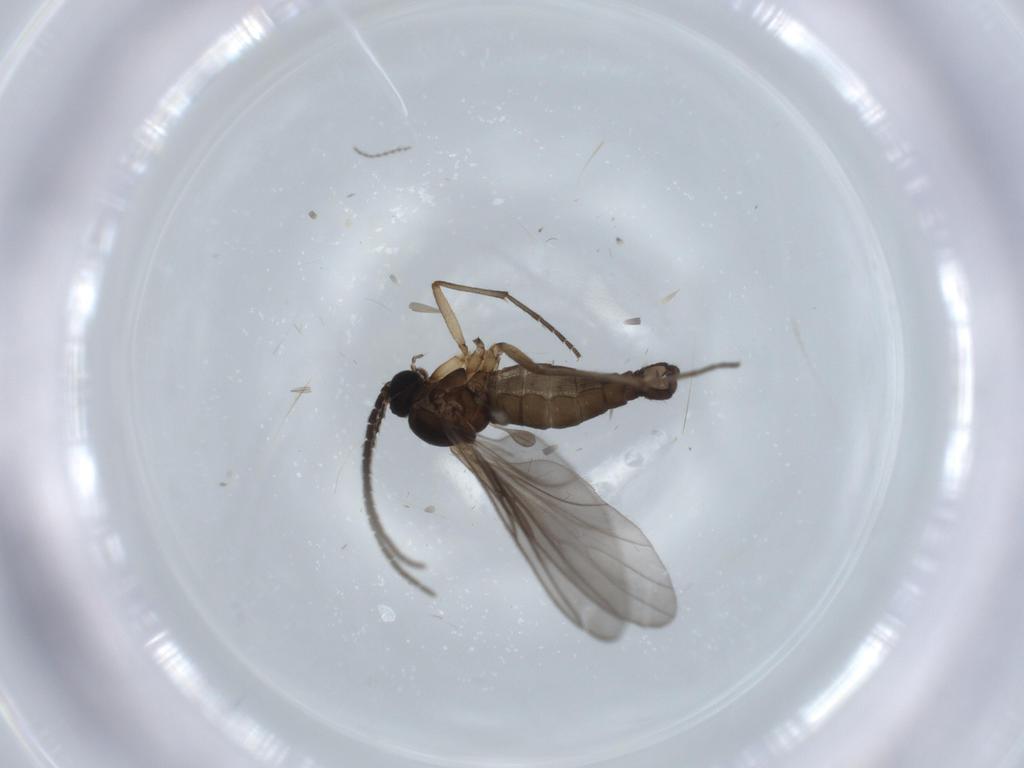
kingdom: Animalia
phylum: Arthropoda
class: Insecta
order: Diptera
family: Sciaridae
